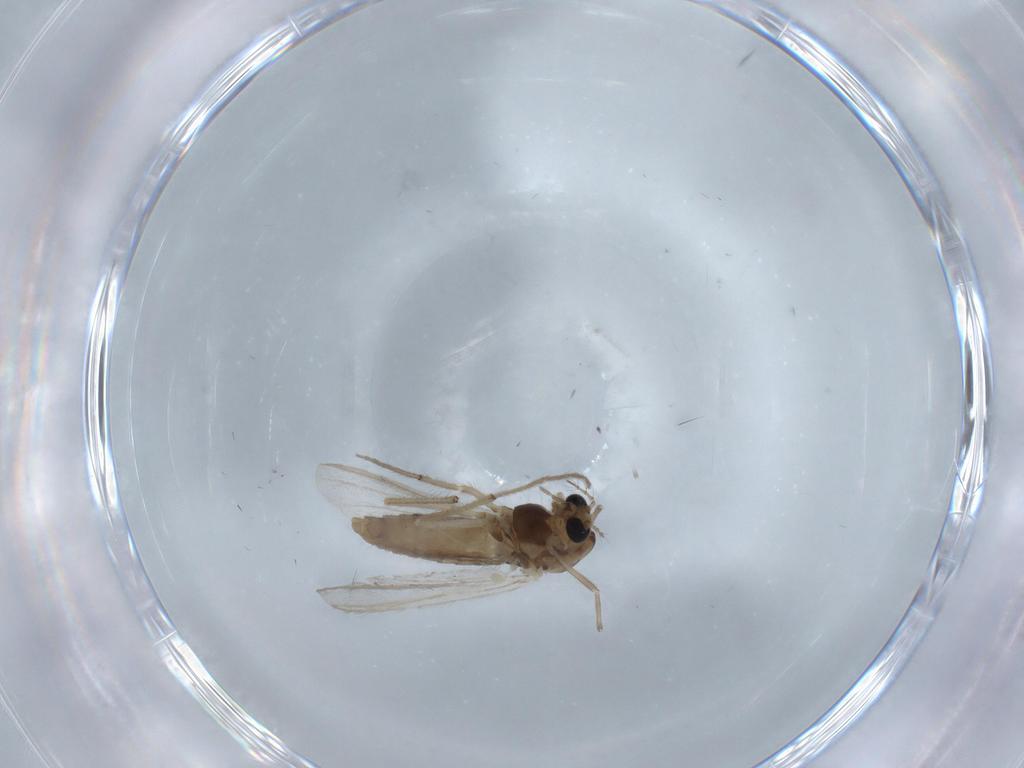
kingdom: Animalia
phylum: Arthropoda
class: Insecta
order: Diptera
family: Chironomidae
